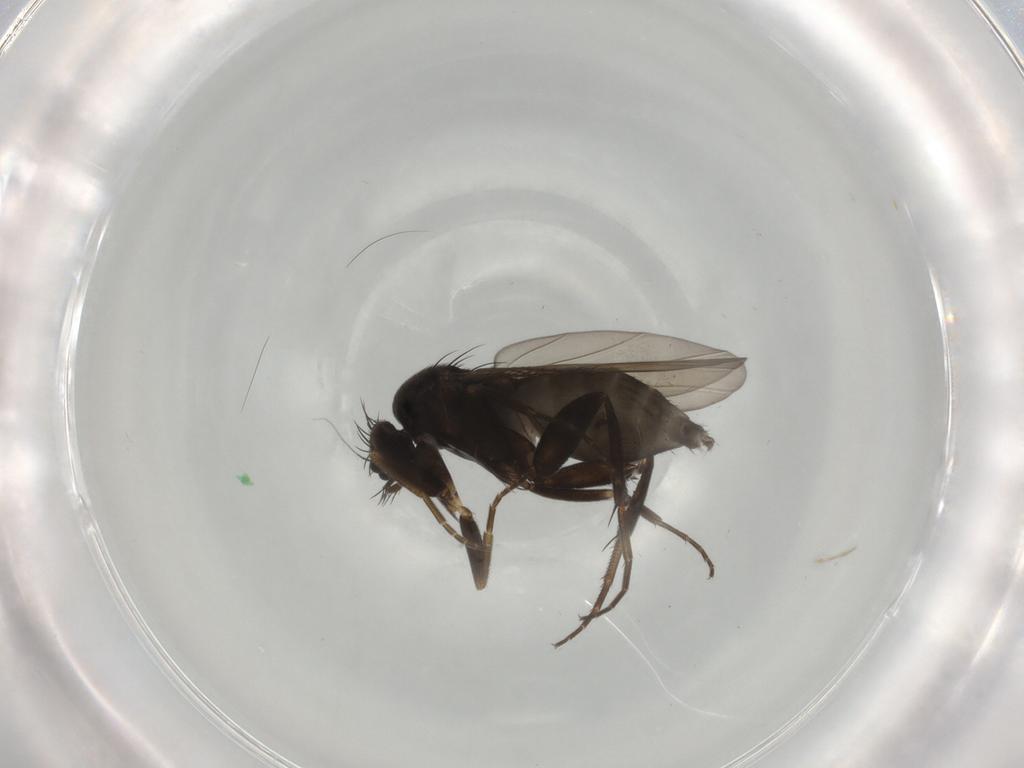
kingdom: Animalia
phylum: Arthropoda
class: Insecta
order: Diptera
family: Phoridae
